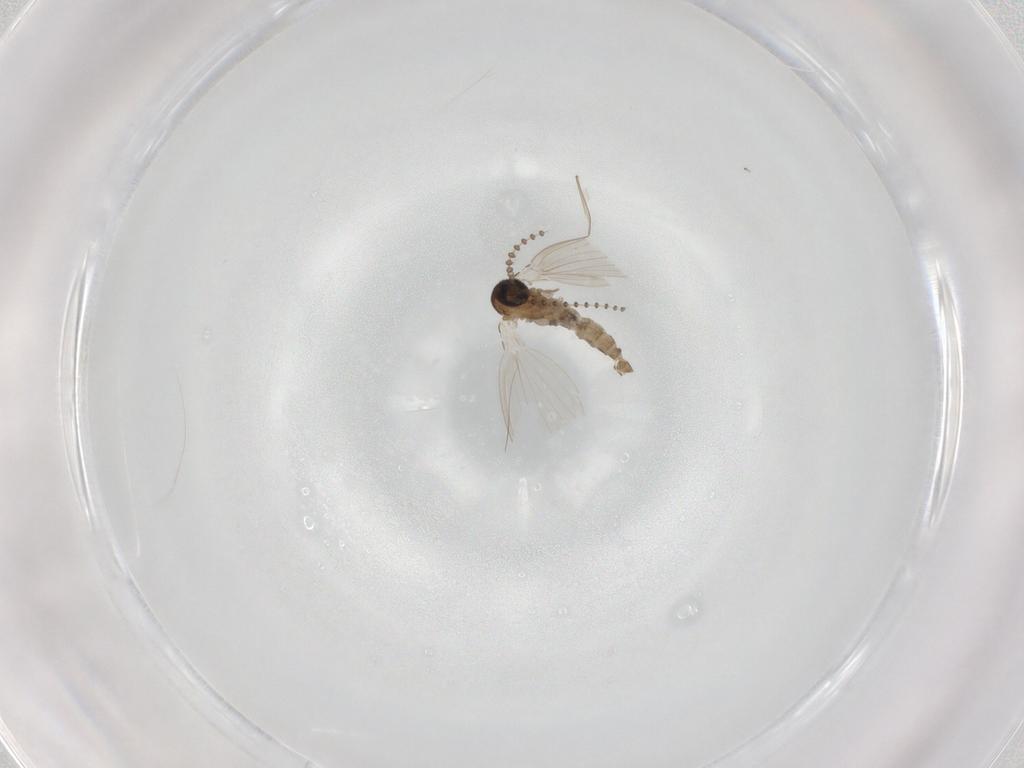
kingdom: Animalia
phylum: Arthropoda
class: Insecta
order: Diptera
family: Psychodidae
